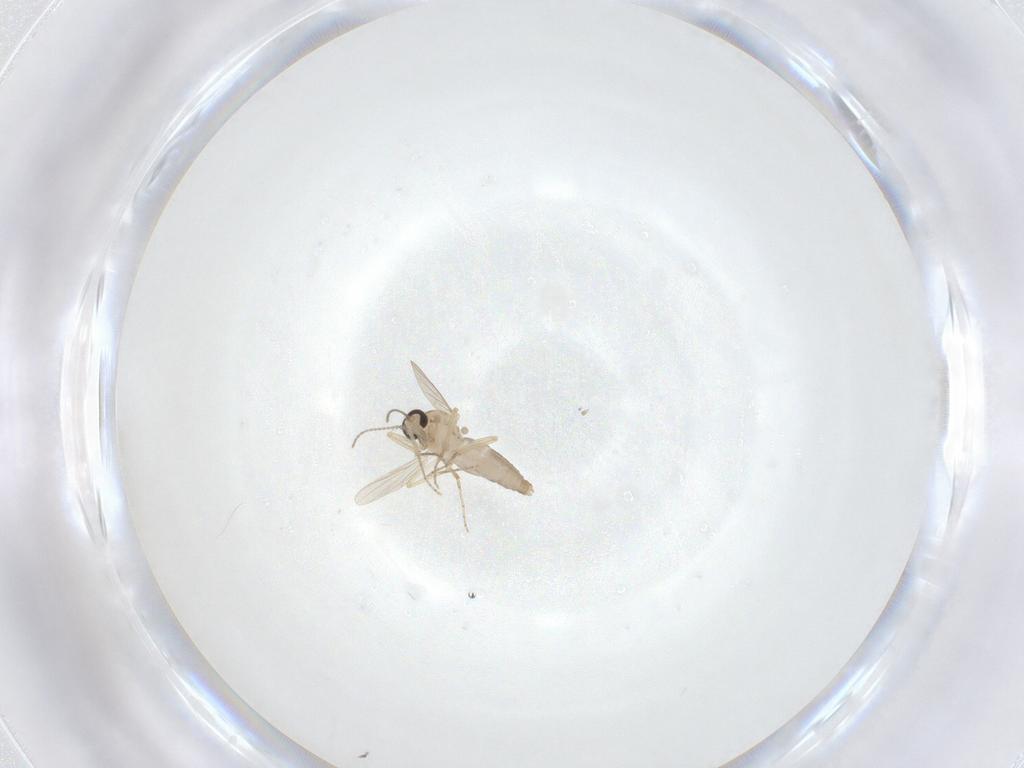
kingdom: Animalia
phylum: Arthropoda
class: Insecta
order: Diptera
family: Ceratopogonidae
